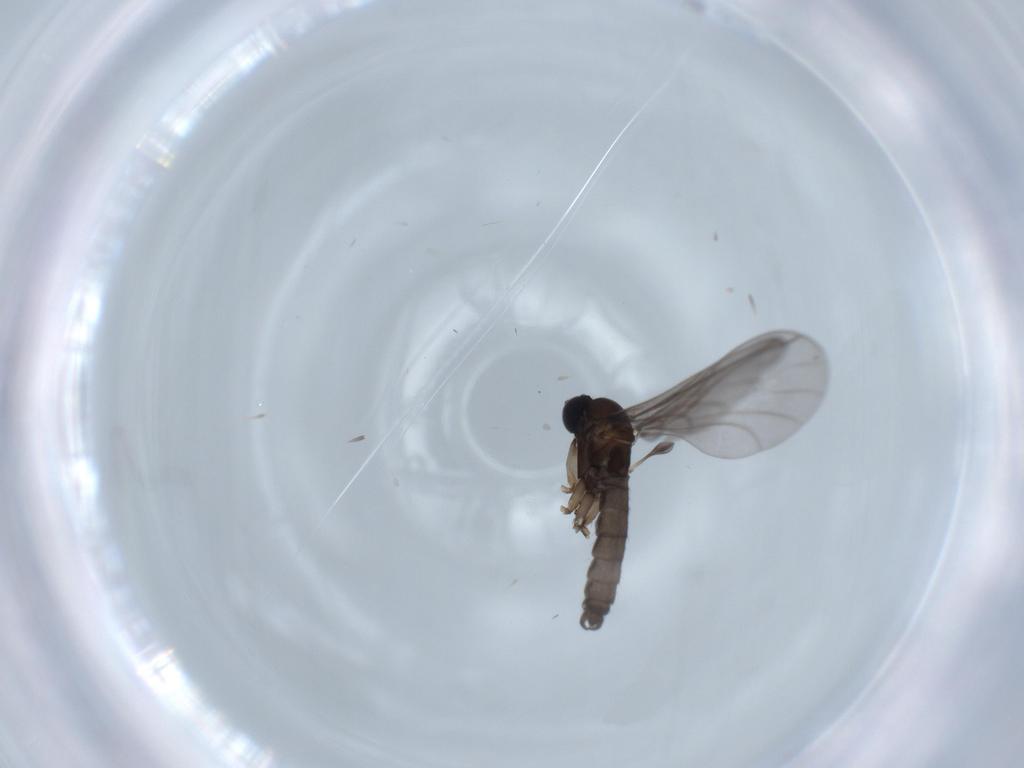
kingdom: Animalia
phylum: Arthropoda
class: Insecta
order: Diptera
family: Sciaridae
